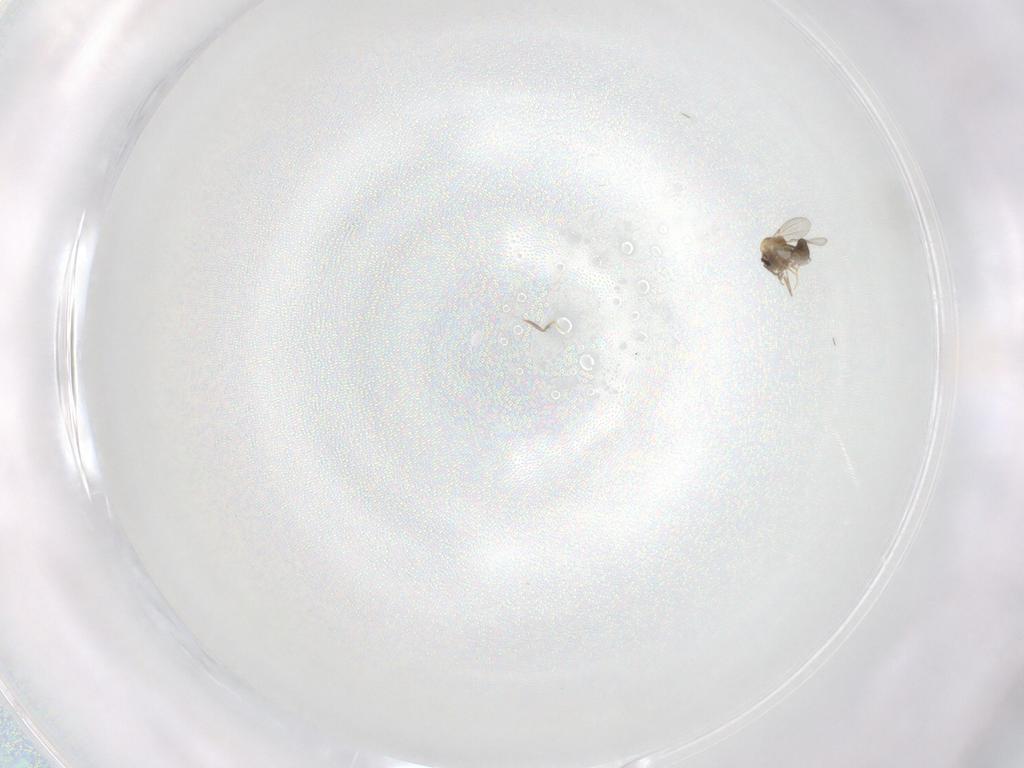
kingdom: Animalia
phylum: Arthropoda
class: Insecta
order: Diptera
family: Ceratopogonidae
